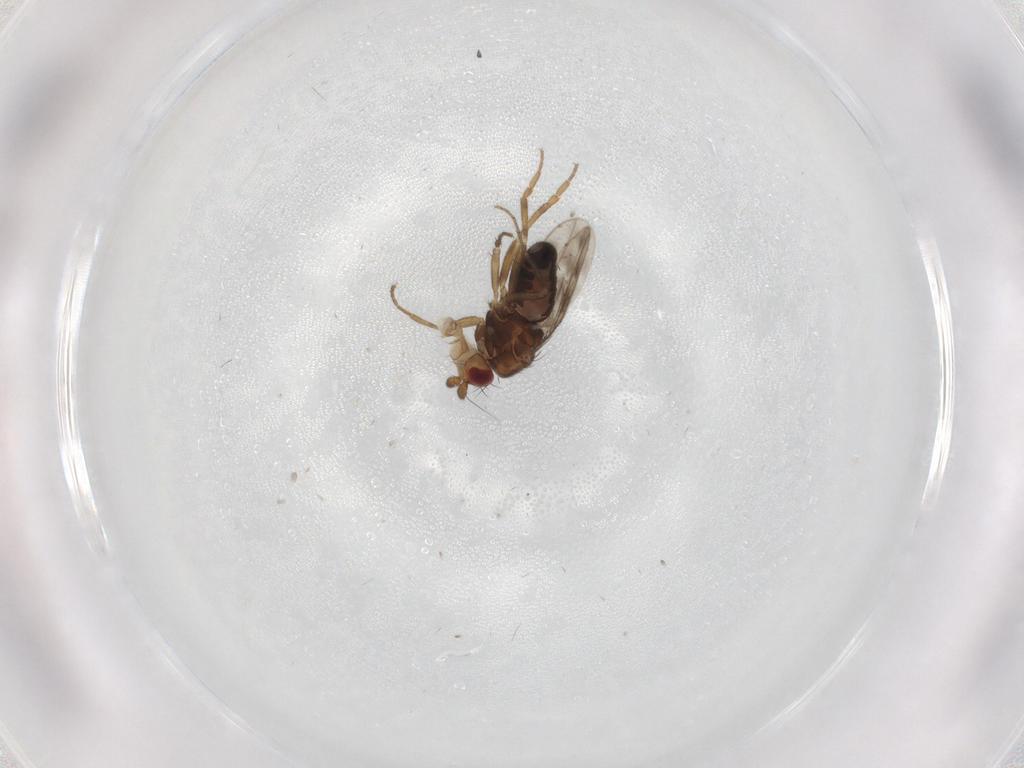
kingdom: Animalia
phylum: Arthropoda
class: Insecta
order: Diptera
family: Sphaeroceridae
